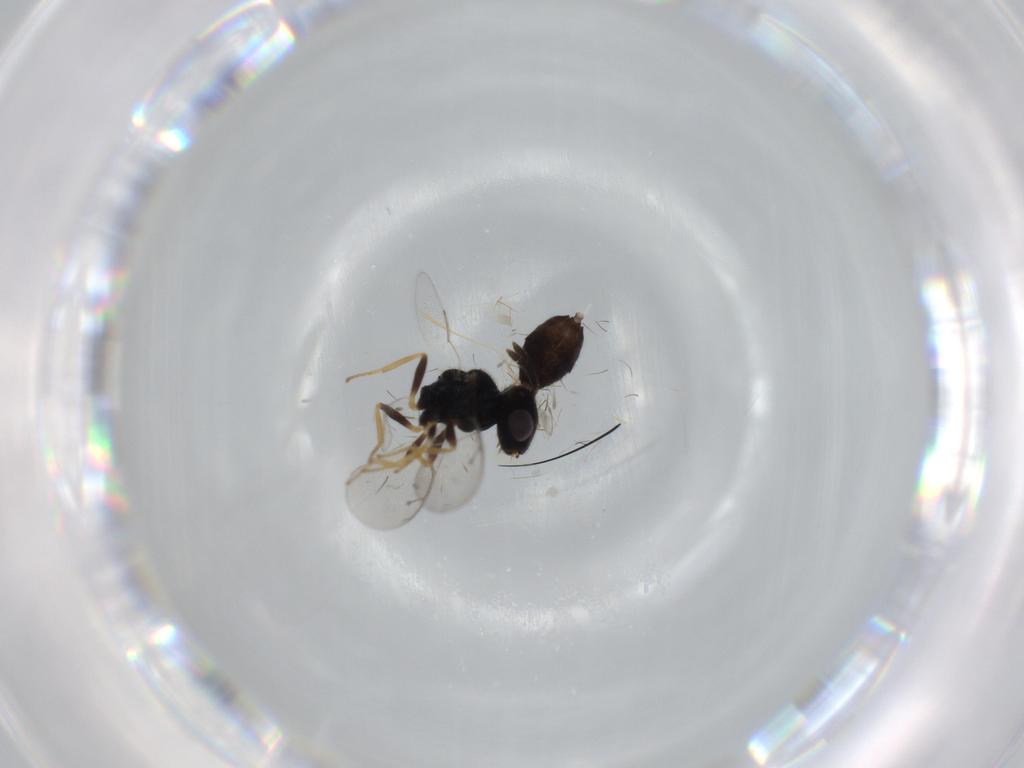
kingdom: Animalia
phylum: Arthropoda
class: Insecta
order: Hymenoptera
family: Pteromalidae
